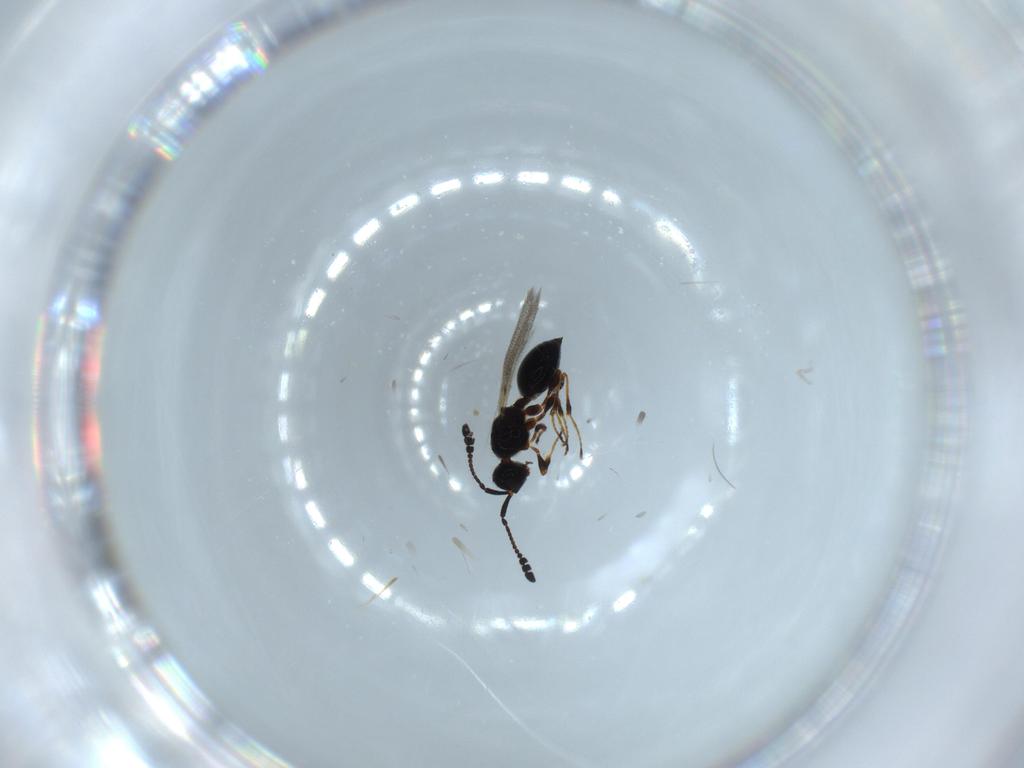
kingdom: Animalia
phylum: Arthropoda
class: Insecta
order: Hymenoptera
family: Diapriidae
